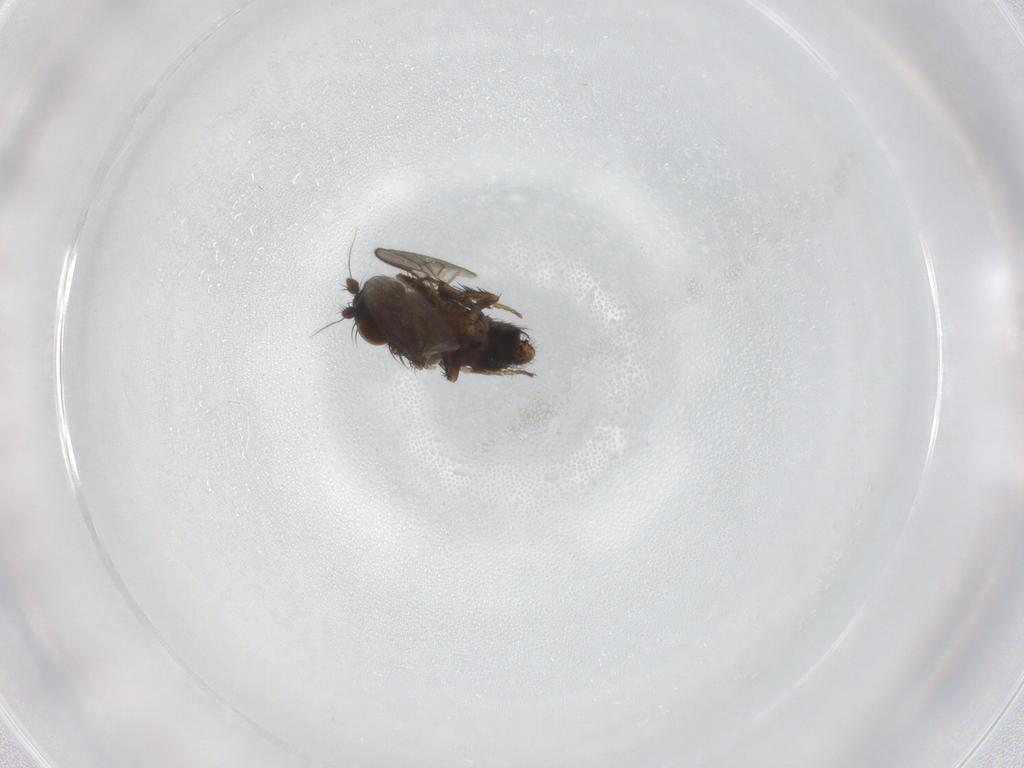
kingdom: Animalia
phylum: Arthropoda
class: Insecta
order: Diptera
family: Sphaeroceridae
